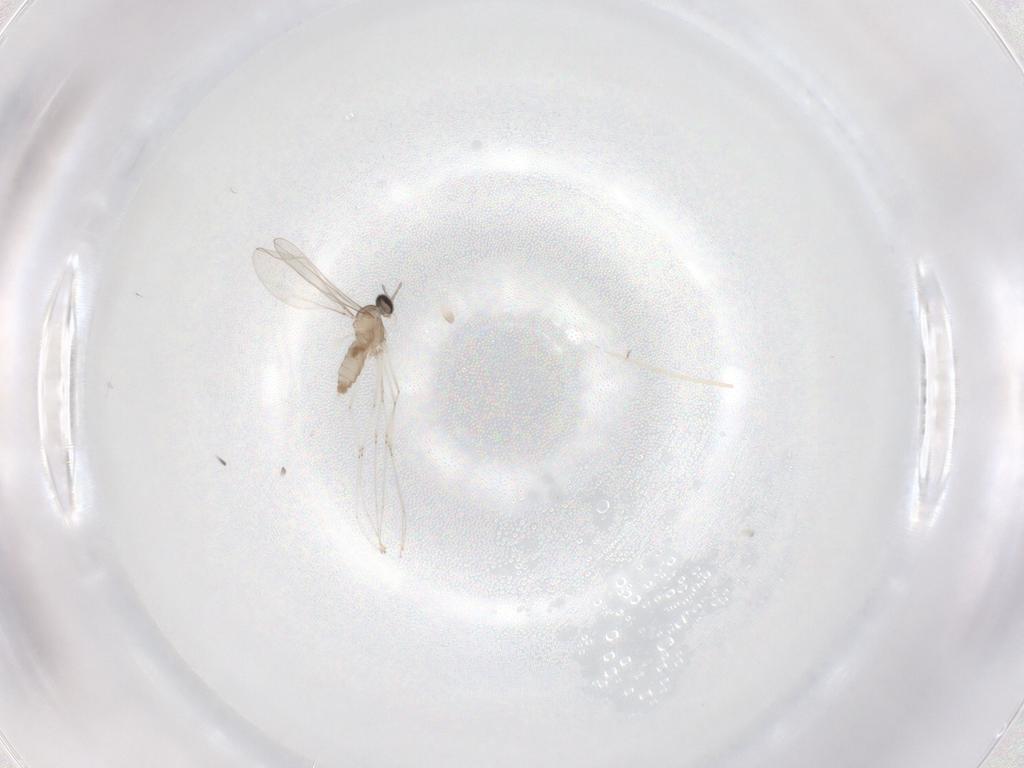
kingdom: Animalia
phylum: Arthropoda
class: Insecta
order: Diptera
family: Cecidomyiidae
